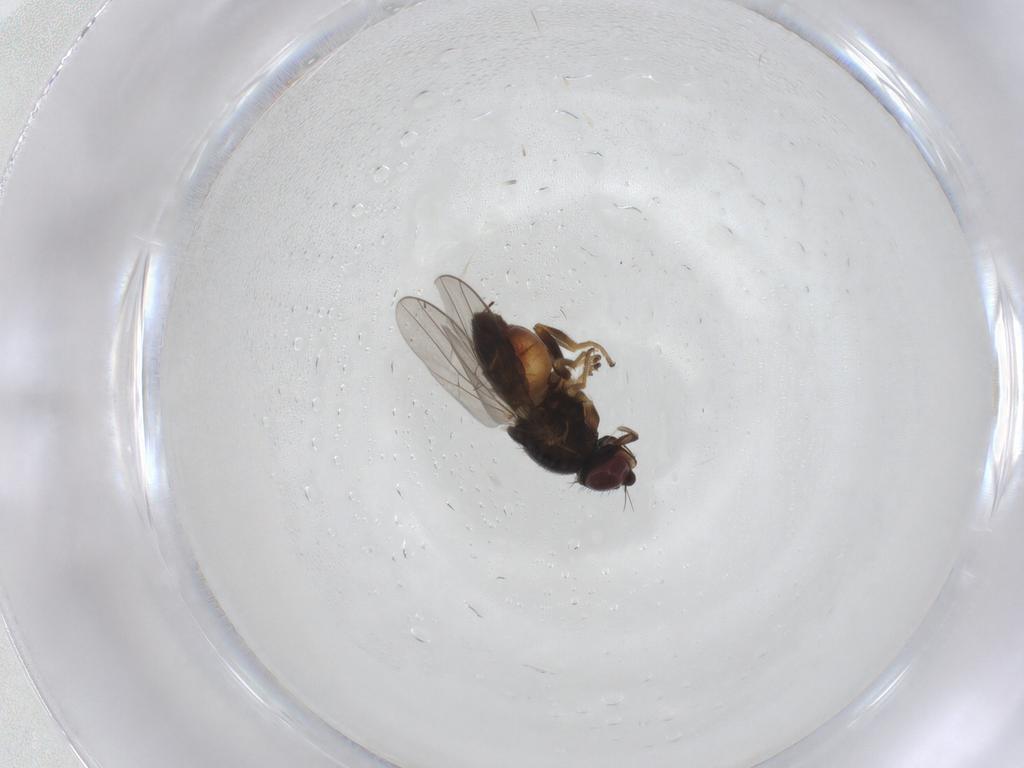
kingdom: Animalia
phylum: Arthropoda
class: Insecta
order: Diptera
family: Chloropidae
